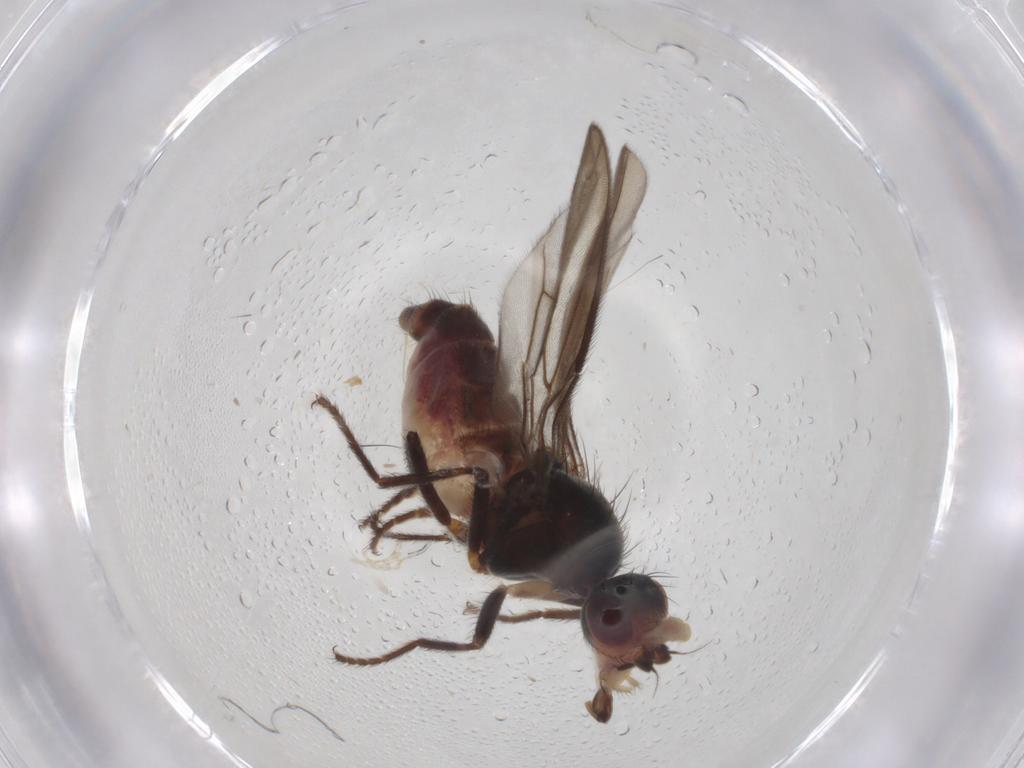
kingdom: Animalia
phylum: Arthropoda
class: Insecta
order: Diptera
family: Chloropidae
